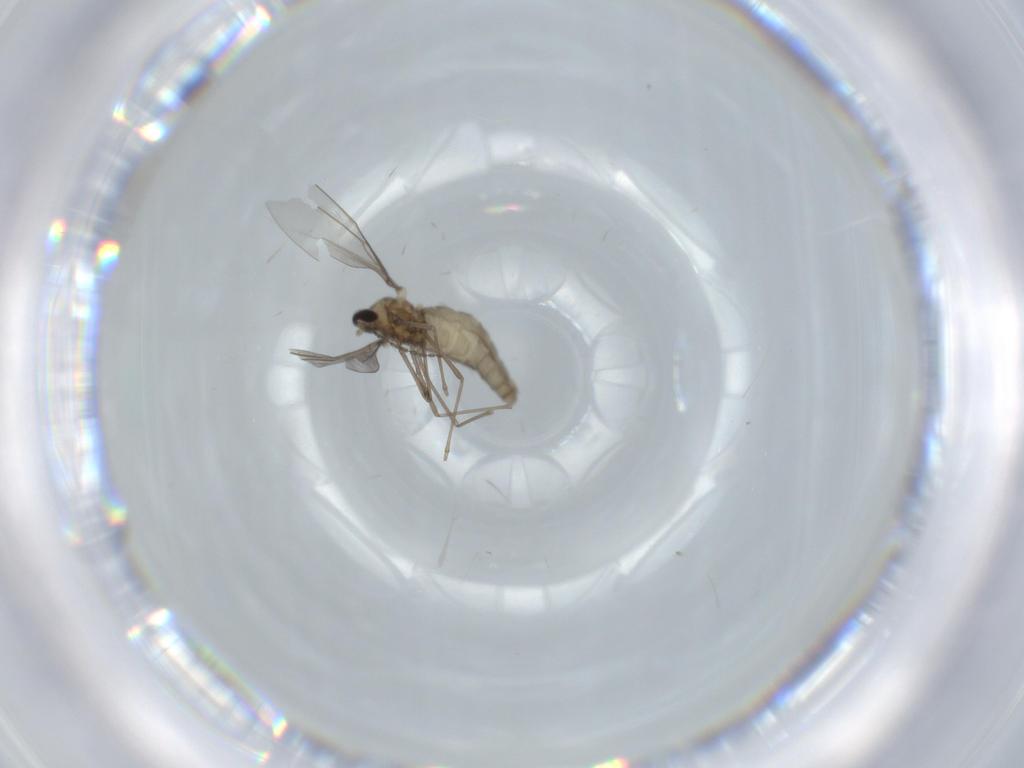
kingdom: Animalia
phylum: Arthropoda
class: Insecta
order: Diptera
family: Cecidomyiidae
